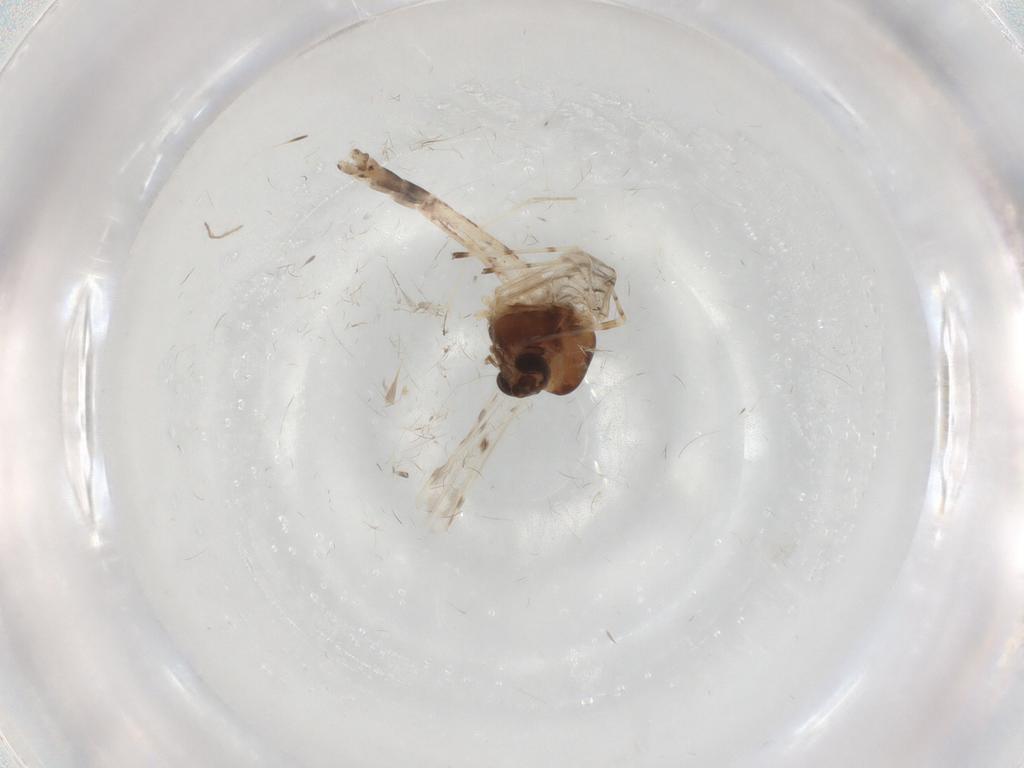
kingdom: Animalia
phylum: Arthropoda
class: Insecta
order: Diptera
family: Chironomidae
